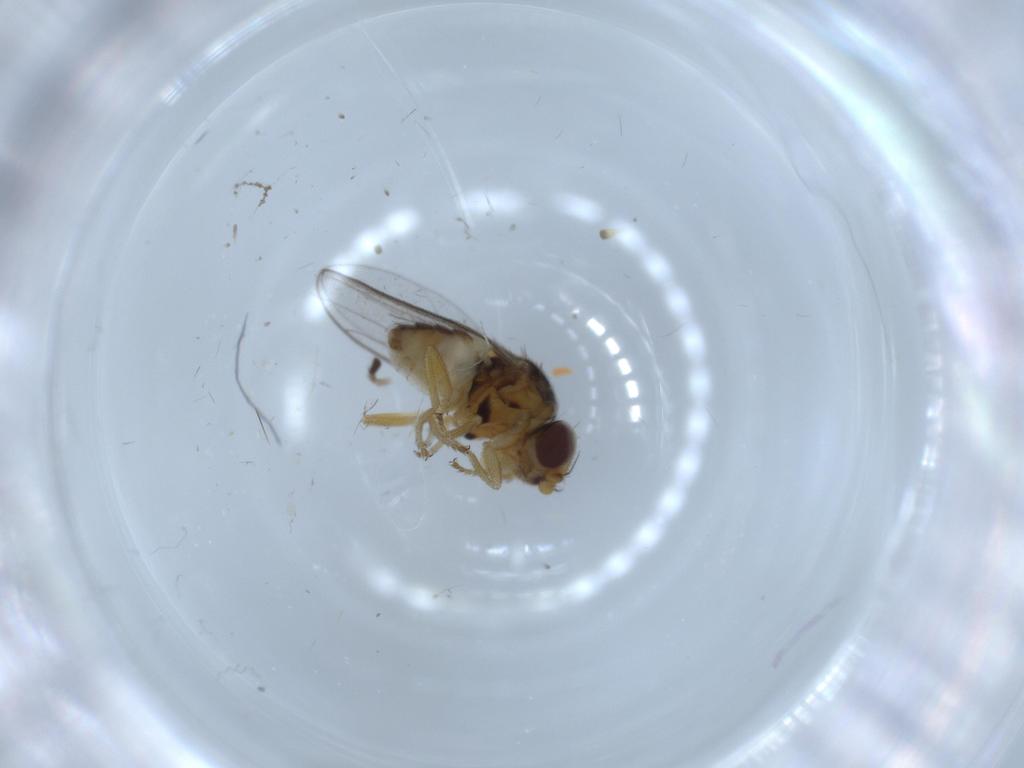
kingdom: Animalia
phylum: Arthropoda
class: Insecta
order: Diptera
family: Chloropidae
